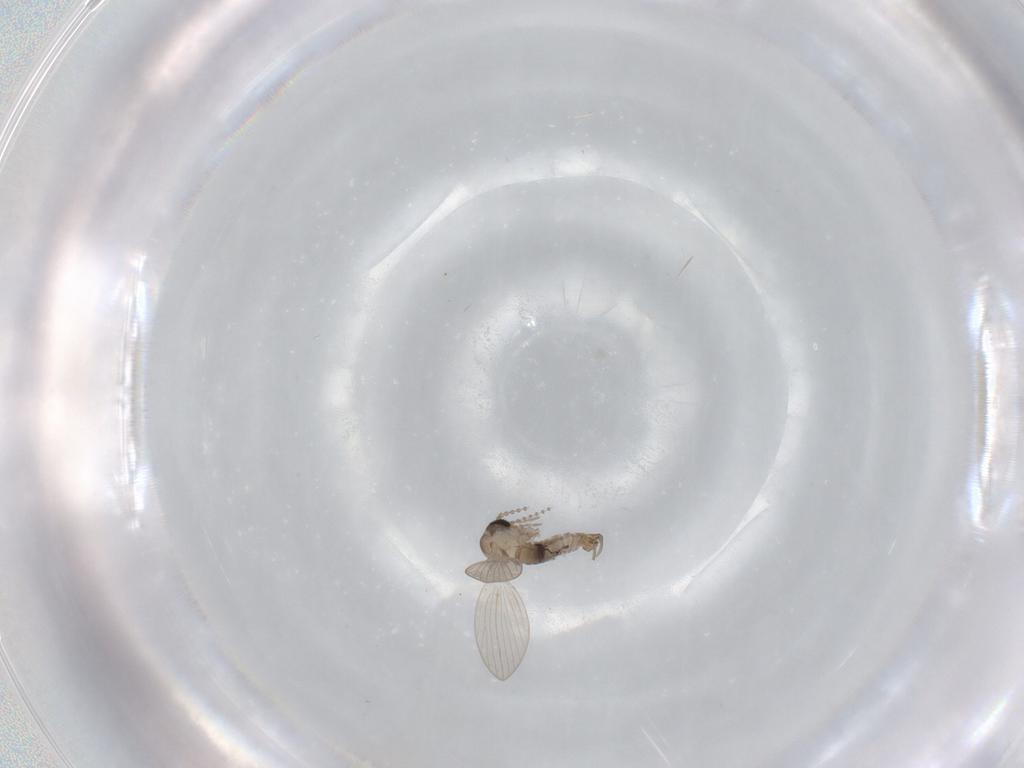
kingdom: Animalia
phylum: Arthropoda
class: Insecta
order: Diptera
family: Psychodidae
